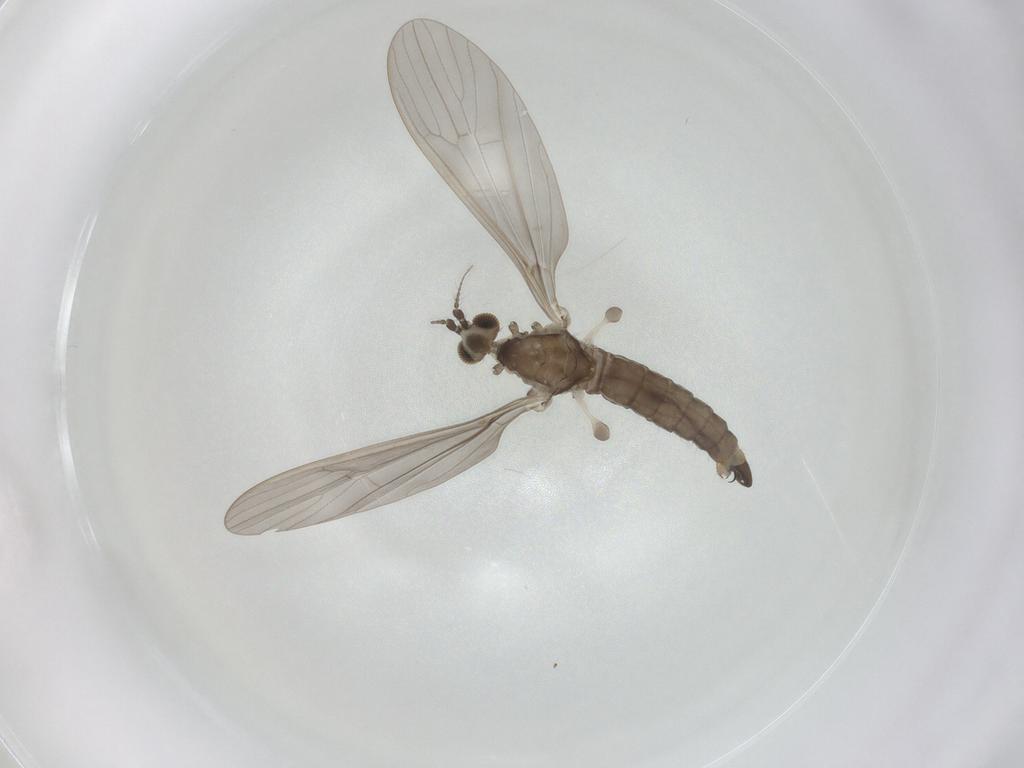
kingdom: Animalia
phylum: Arthropoda
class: Insecta
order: Diptera
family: Limoniidae
